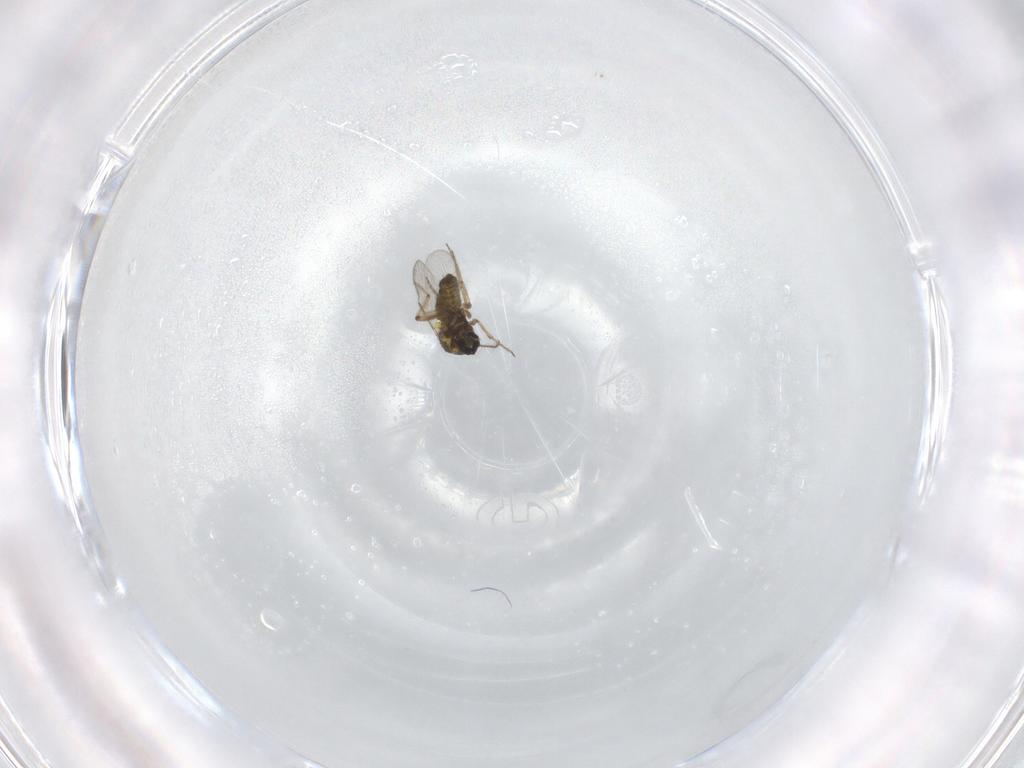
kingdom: Animalia
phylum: Arthropoda
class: Insecta
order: Diptera
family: Ceratopogonidae
